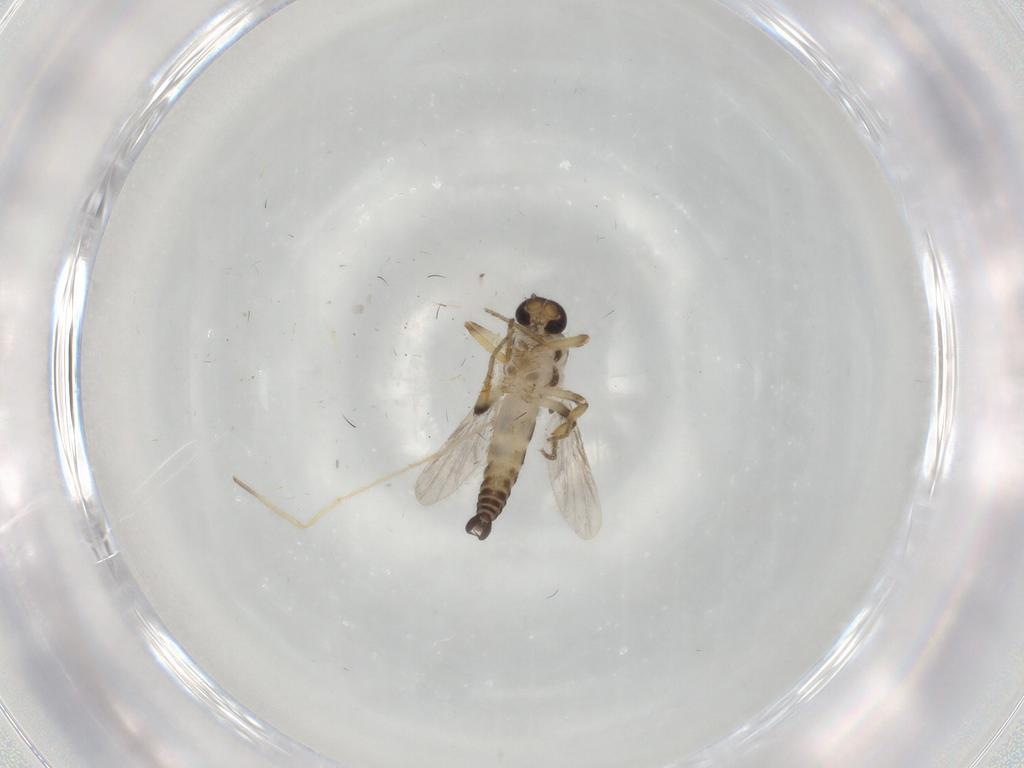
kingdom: Animalia
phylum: Arthropoda
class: Insecta
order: Diptera
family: Ceratopogonidae
